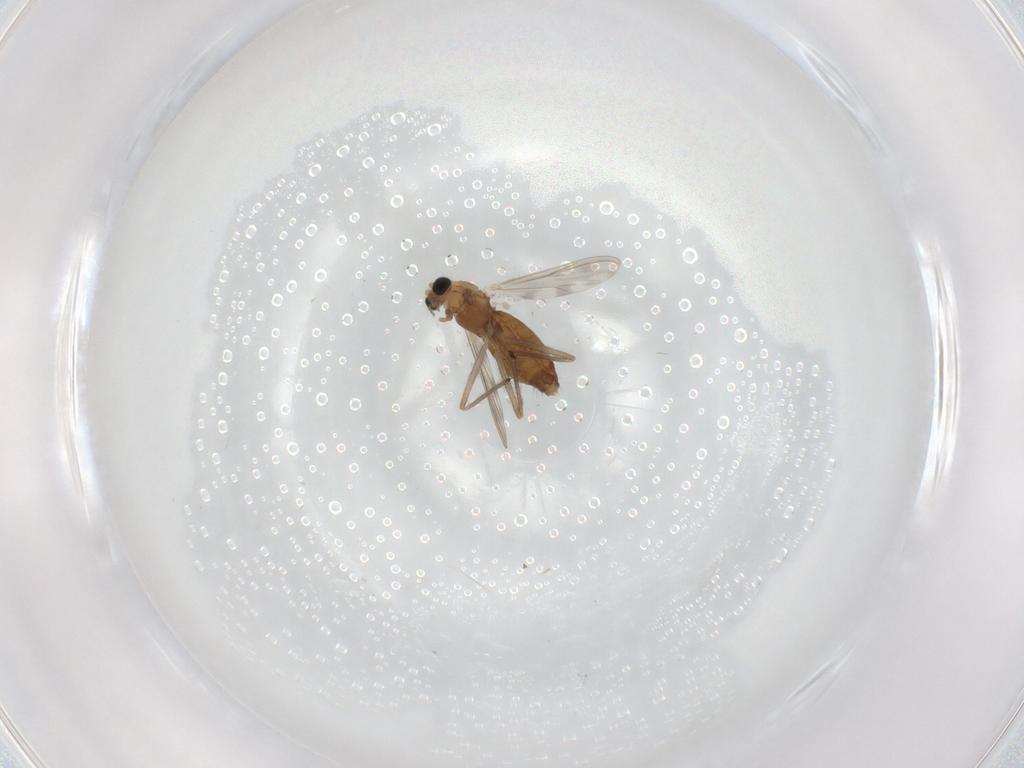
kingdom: Animalia
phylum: Arthropoda
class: Insecta
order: Diptera
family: Chironomidae
